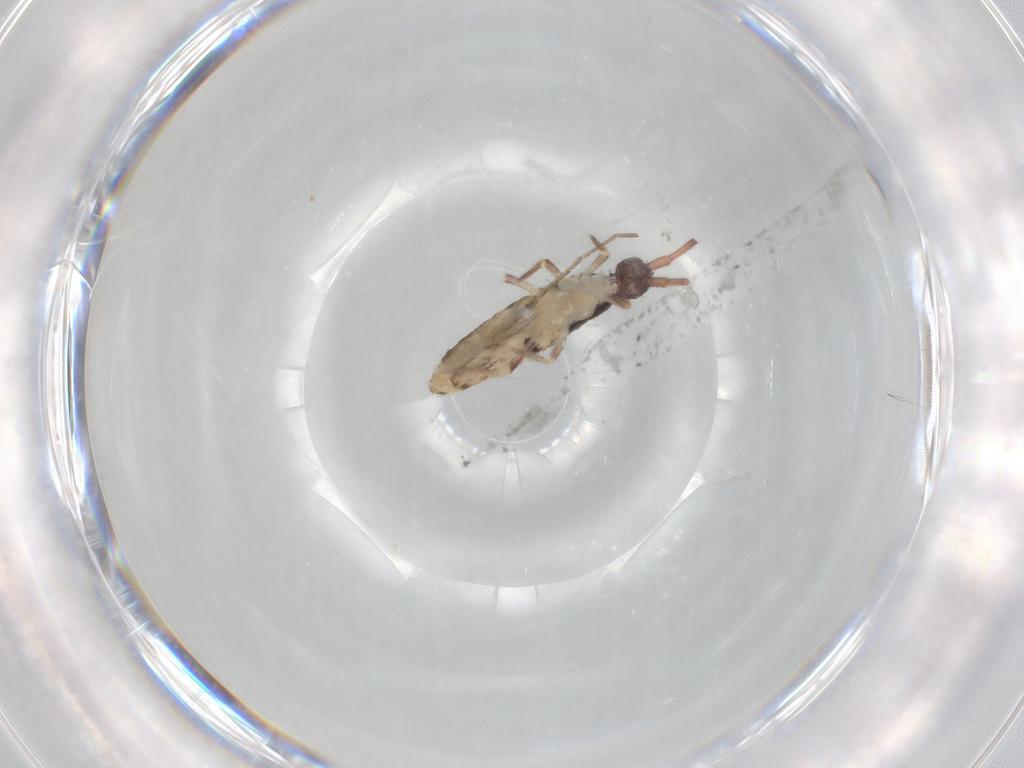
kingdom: Animalia
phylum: Arthropoda
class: Collembola
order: Entomobryomorpha
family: Entomobryidae
